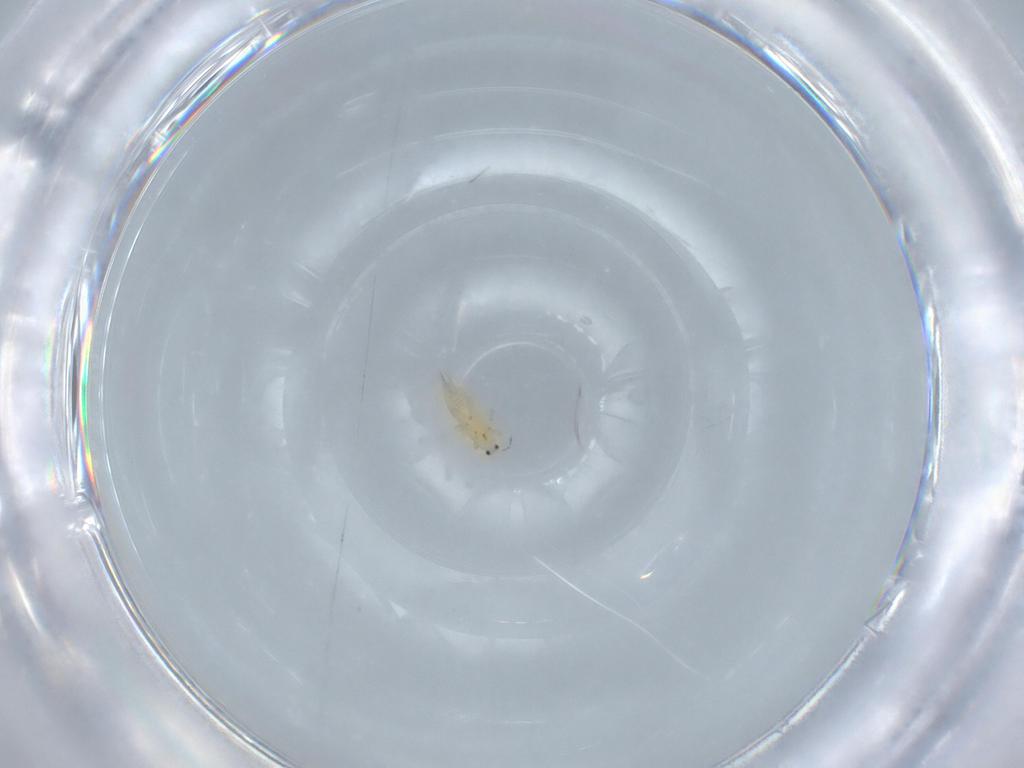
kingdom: Animalia
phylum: Arthropoda
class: Insecta
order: Thysanoptera
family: Thripidae
